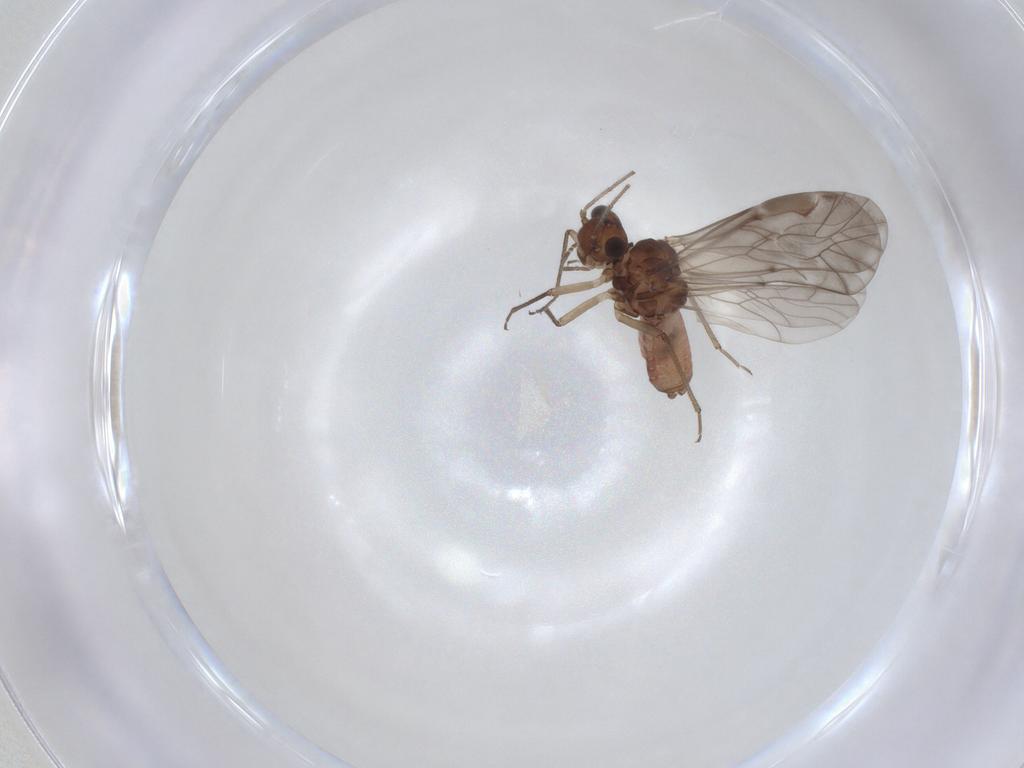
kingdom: Animalia
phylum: Arthropoda
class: Insecta
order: Psocodea
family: Peripsocidae
